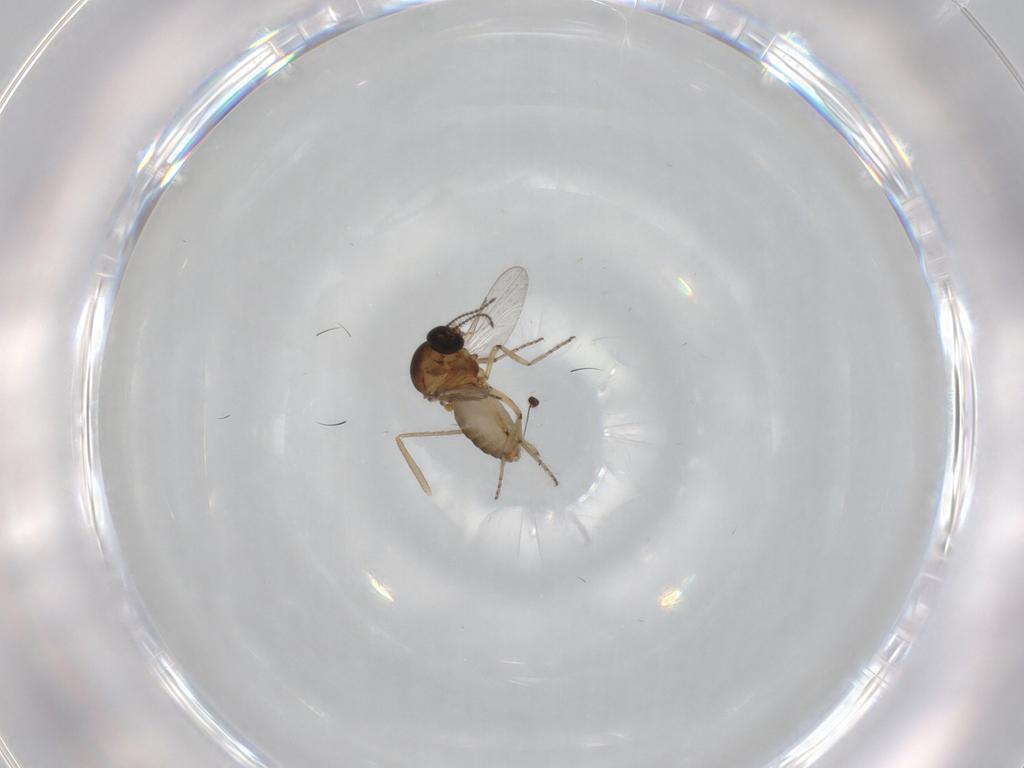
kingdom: Animalia
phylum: Arthropoda
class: Insecta
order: Diptera
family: Ceratopogonidae
